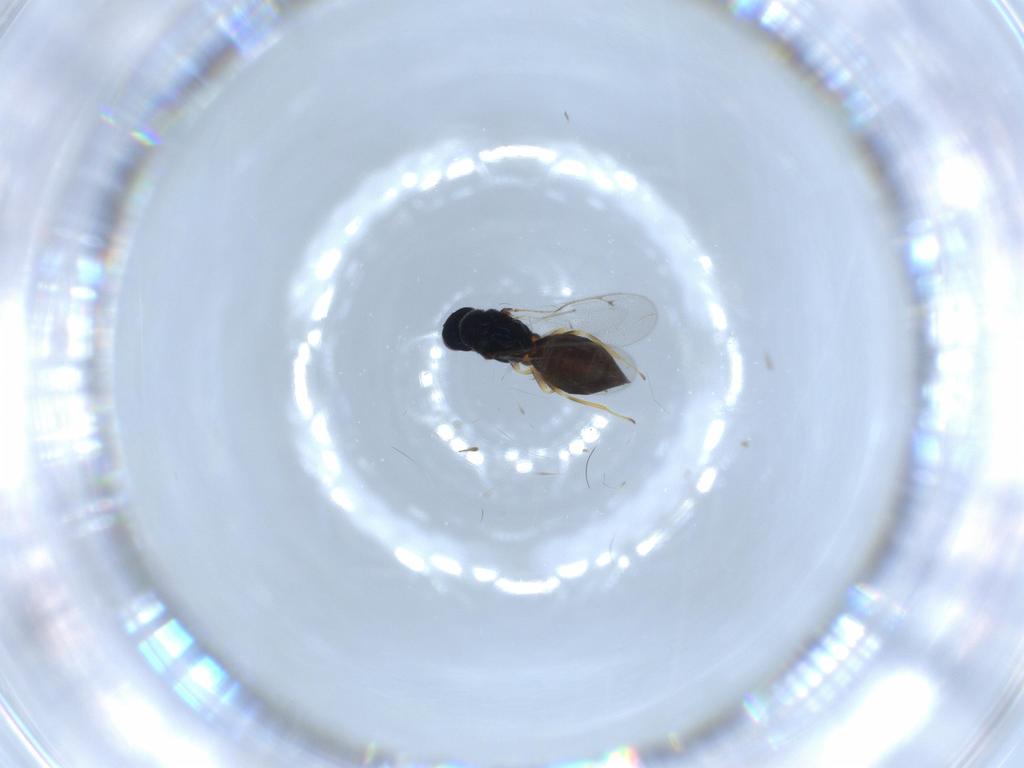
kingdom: Animalia
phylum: Arthropoda
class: Insecta
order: Hymenoptera
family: Eulophidae
